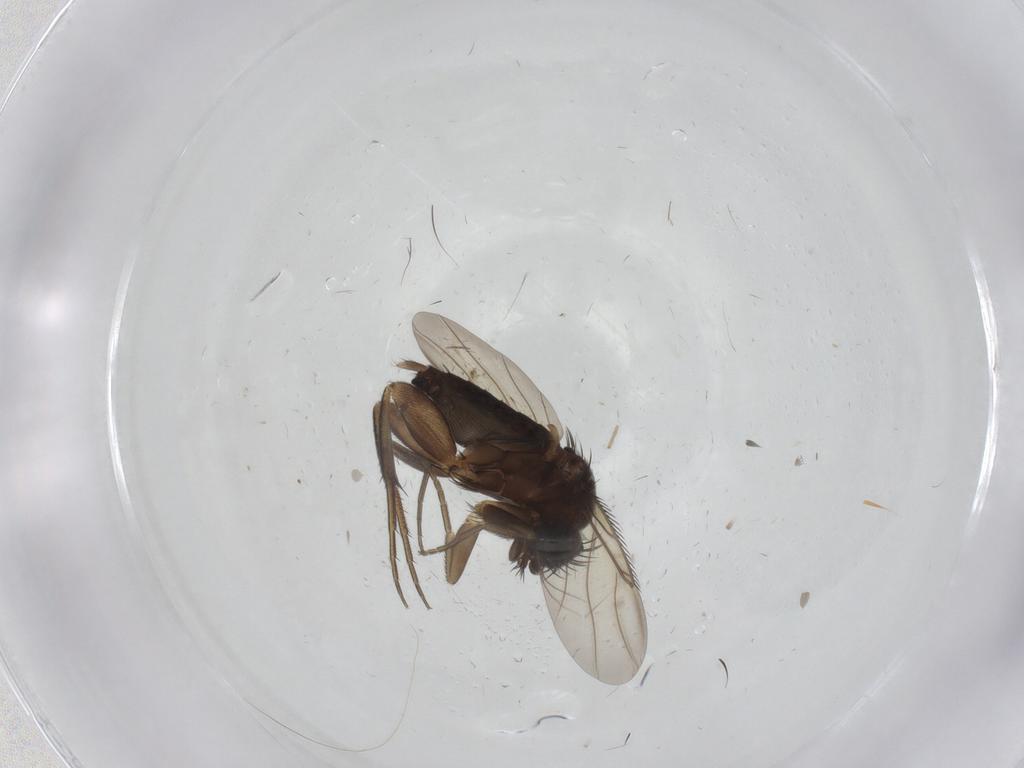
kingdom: Animalia
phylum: Arthropoda
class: Insecta
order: Diptera
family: Phoridae
